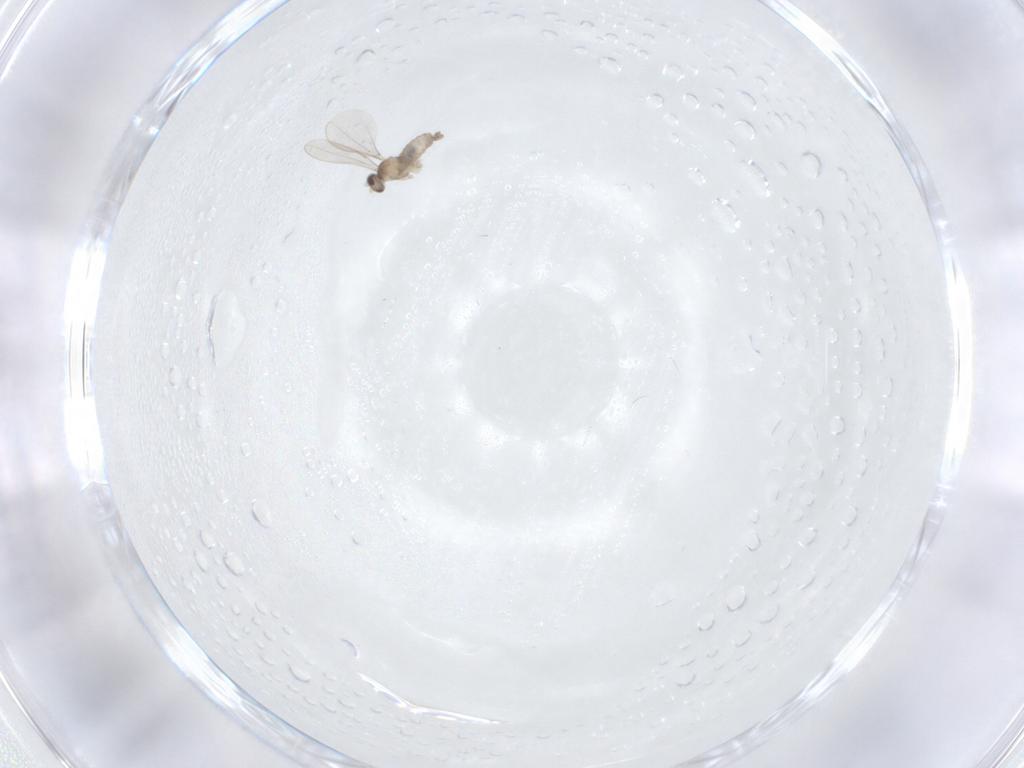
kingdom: Animalia
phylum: Arthropoda
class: Insecta
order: Diptera
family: Cecidomyiidae
